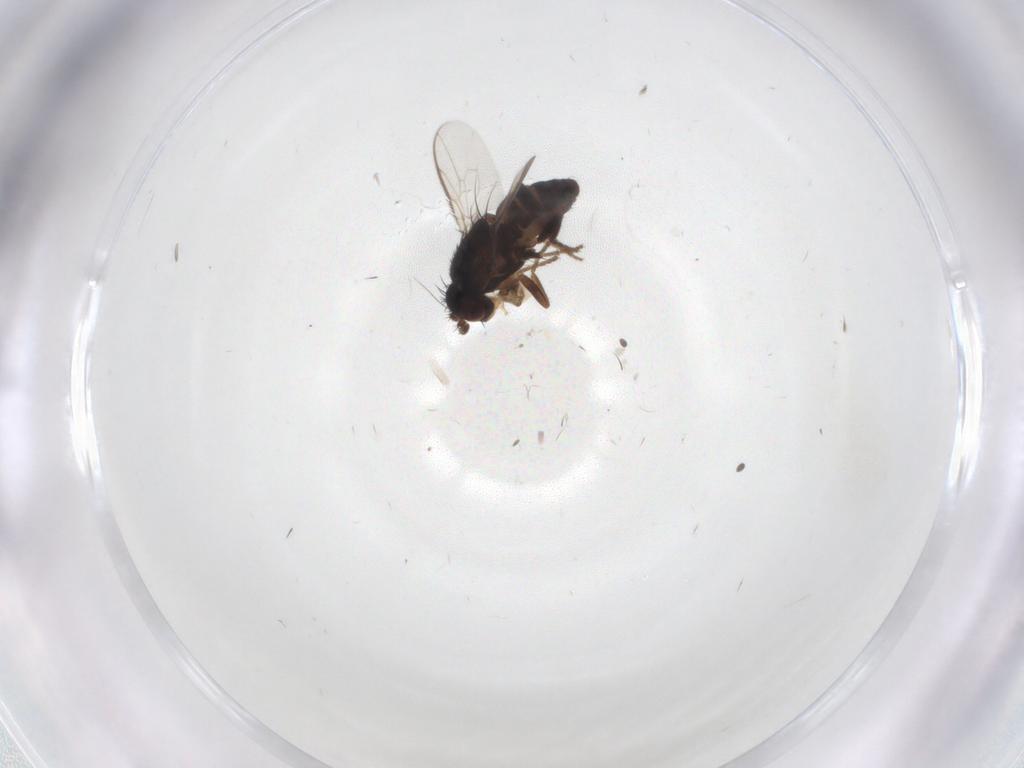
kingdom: Animalia
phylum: Arthropoda
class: Insecta
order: Diptera
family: Sphaeroceridae
